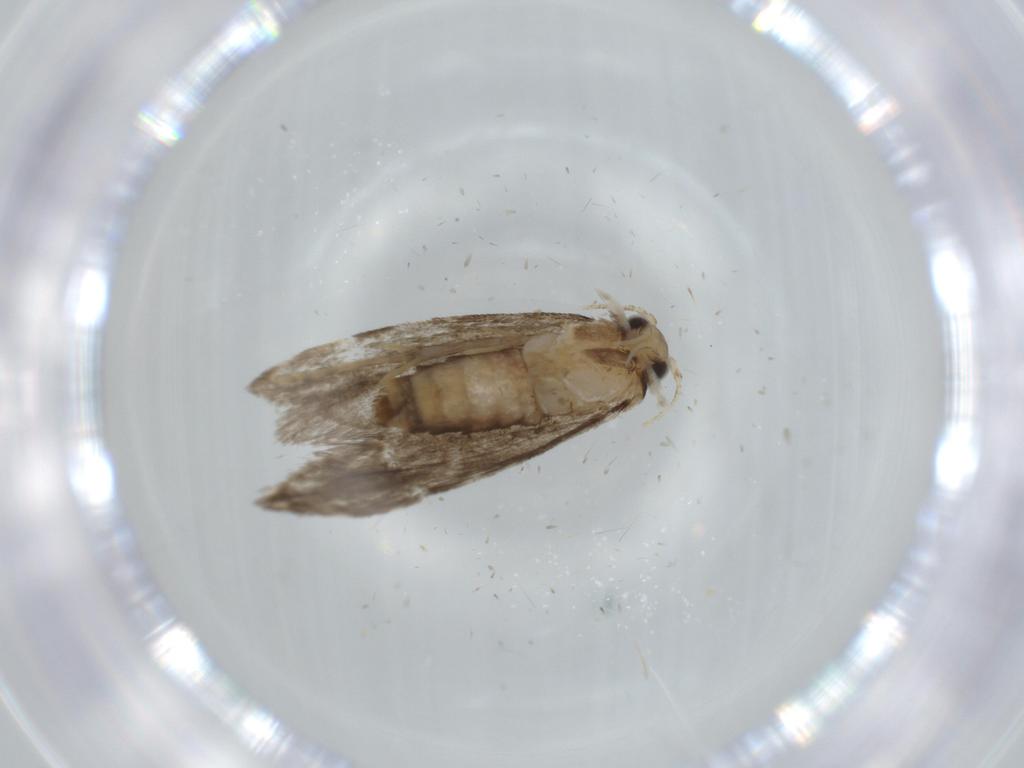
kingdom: Animalia
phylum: Arthropoda
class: Insecta
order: Lepidoptera
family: Tineidae
